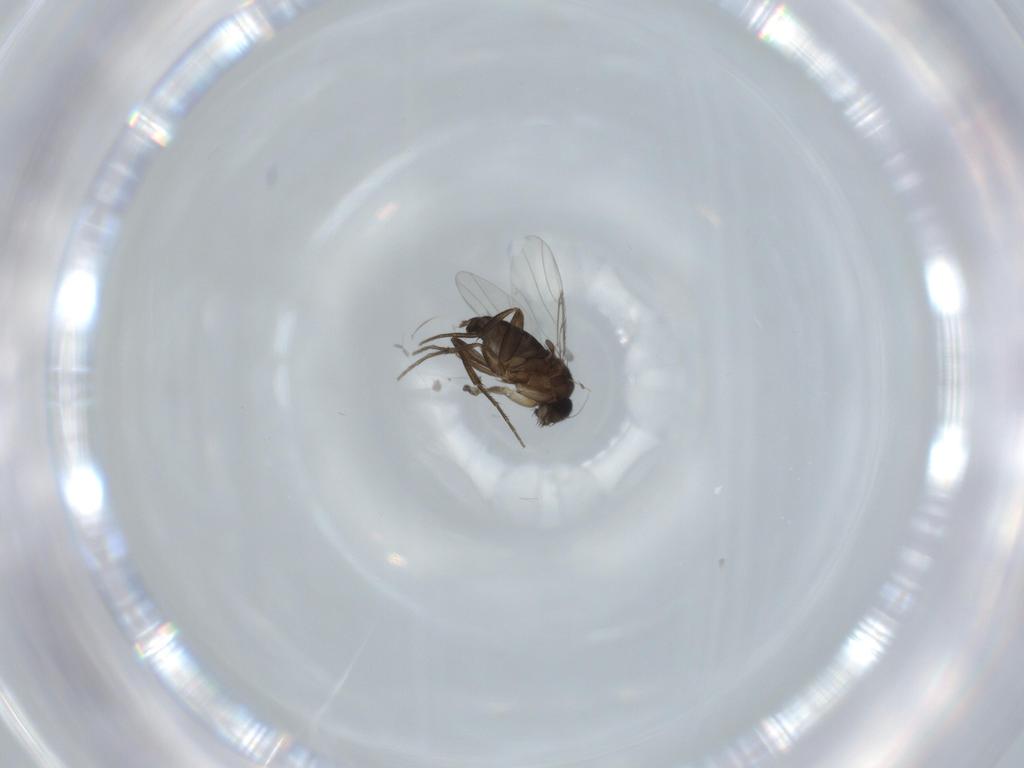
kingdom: Animalia
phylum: Arthropoda
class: Insecta
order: Diptera
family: Phoridae
